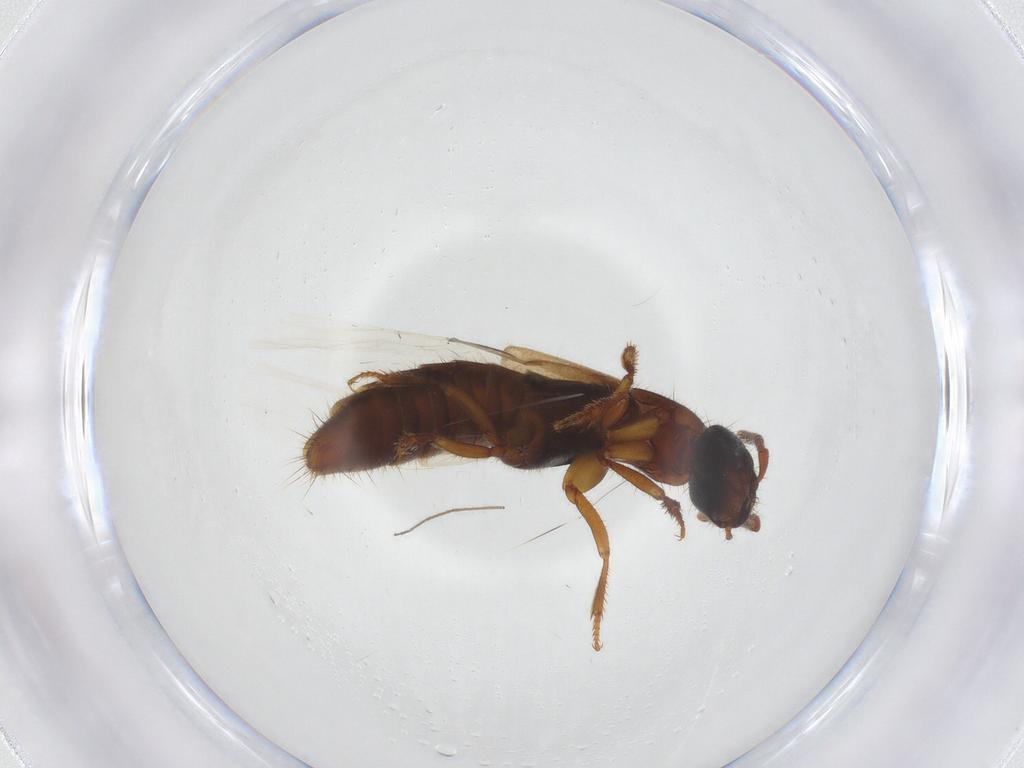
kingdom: Animalia
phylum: Arthropoda
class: Insecta
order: Coleoptera
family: Staphylinidae
